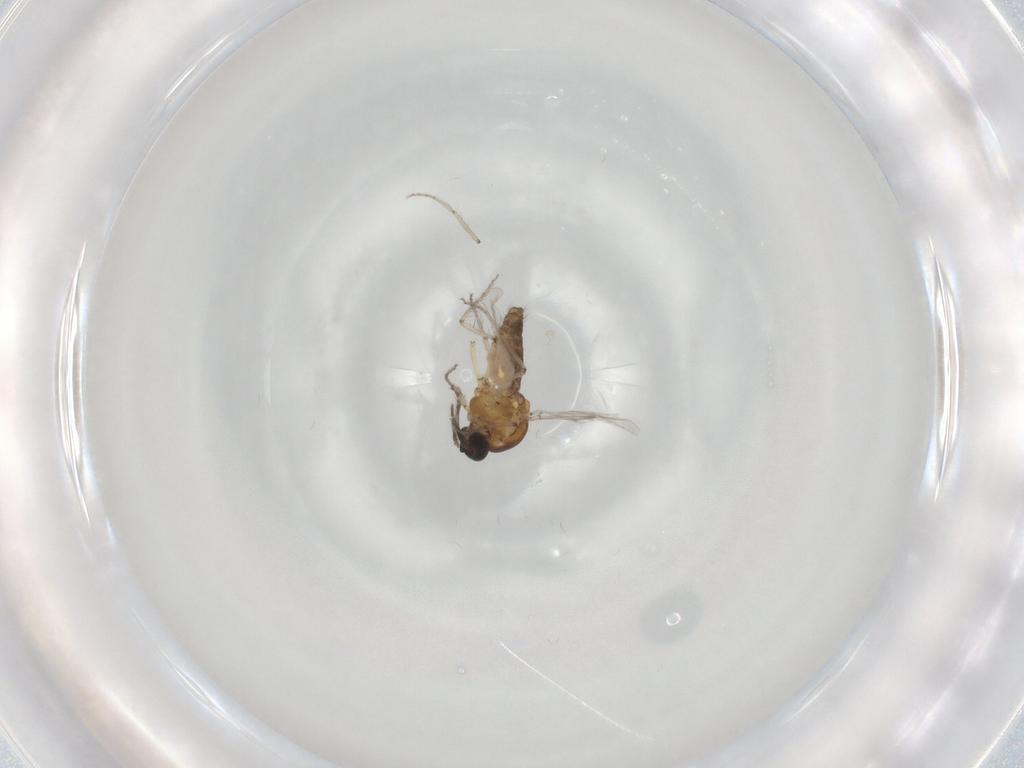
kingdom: Animalia
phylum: Arthropoda
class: Insecta
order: Diptera
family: Ceratopogonidae
